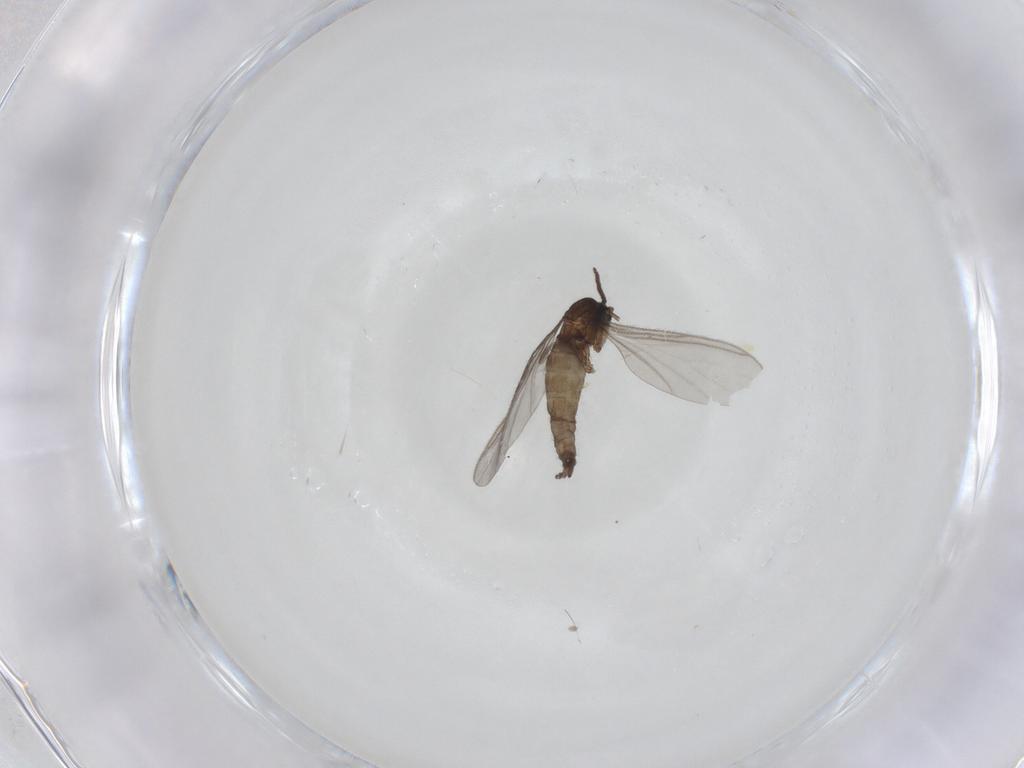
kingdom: Animalia
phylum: Arthropoda
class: Insecta
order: Diptera
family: Sciaridae
